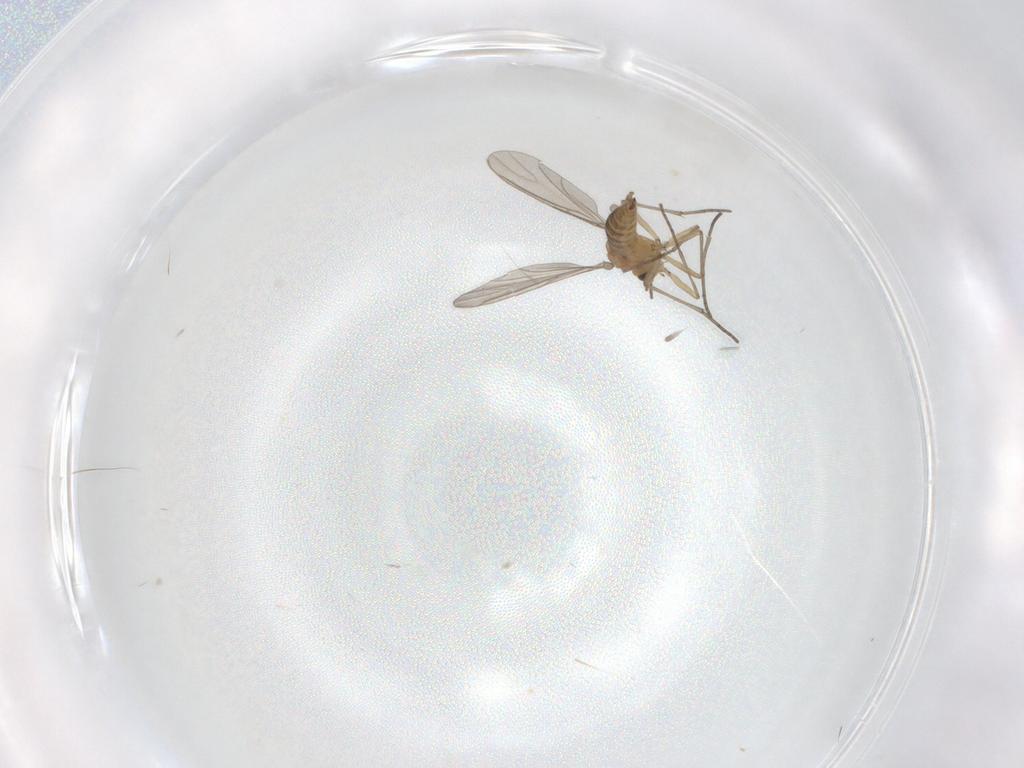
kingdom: Animalia
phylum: Arthropoda
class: Insecta
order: Diptera
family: Sciaridae
